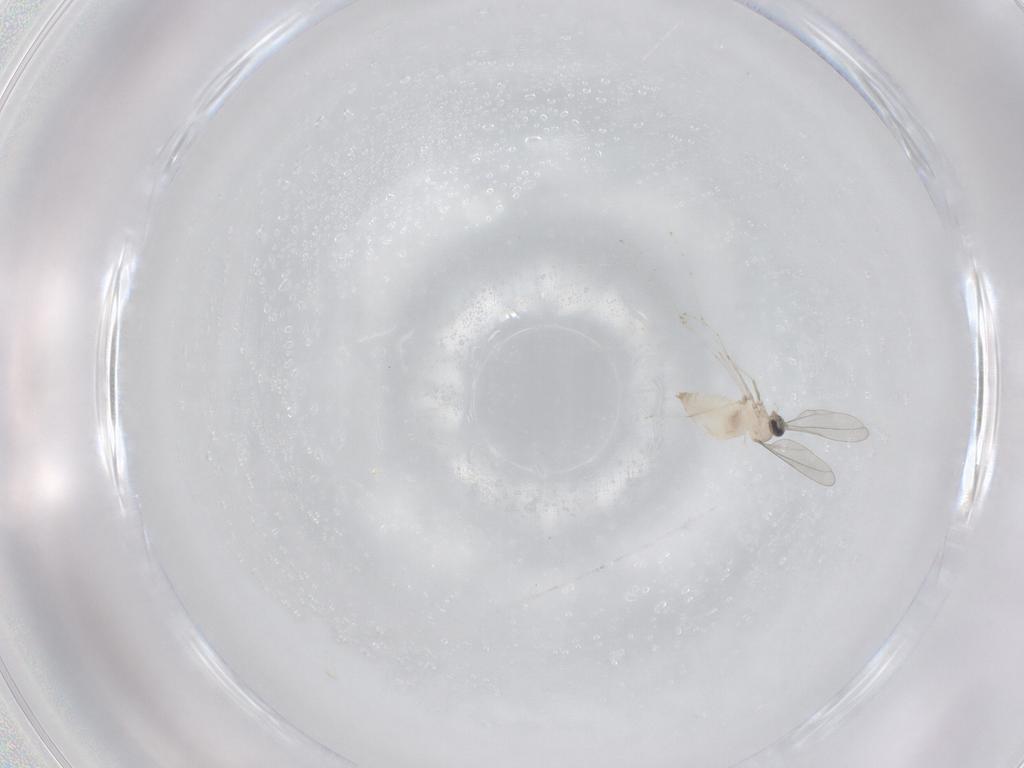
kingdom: Animalia
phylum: Arthropoda
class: Insecta
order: Diptera
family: Cecidomyiidae
